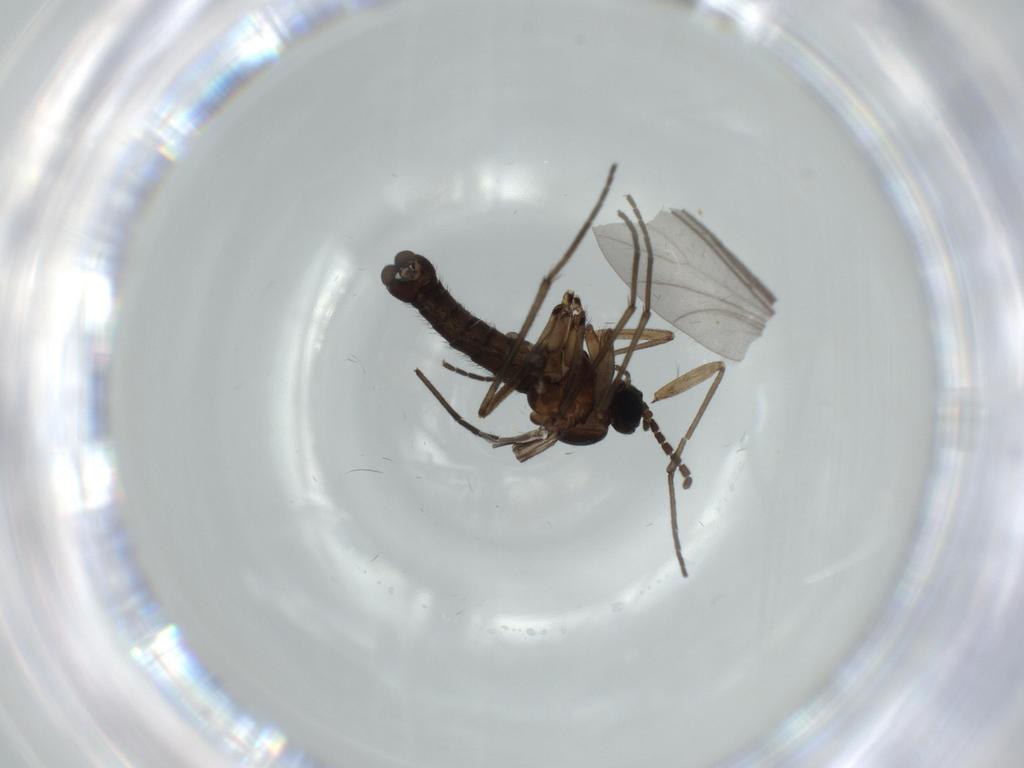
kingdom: Animalia
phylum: Arthropoda
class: Insecta
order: Diptera
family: Sciaridae
